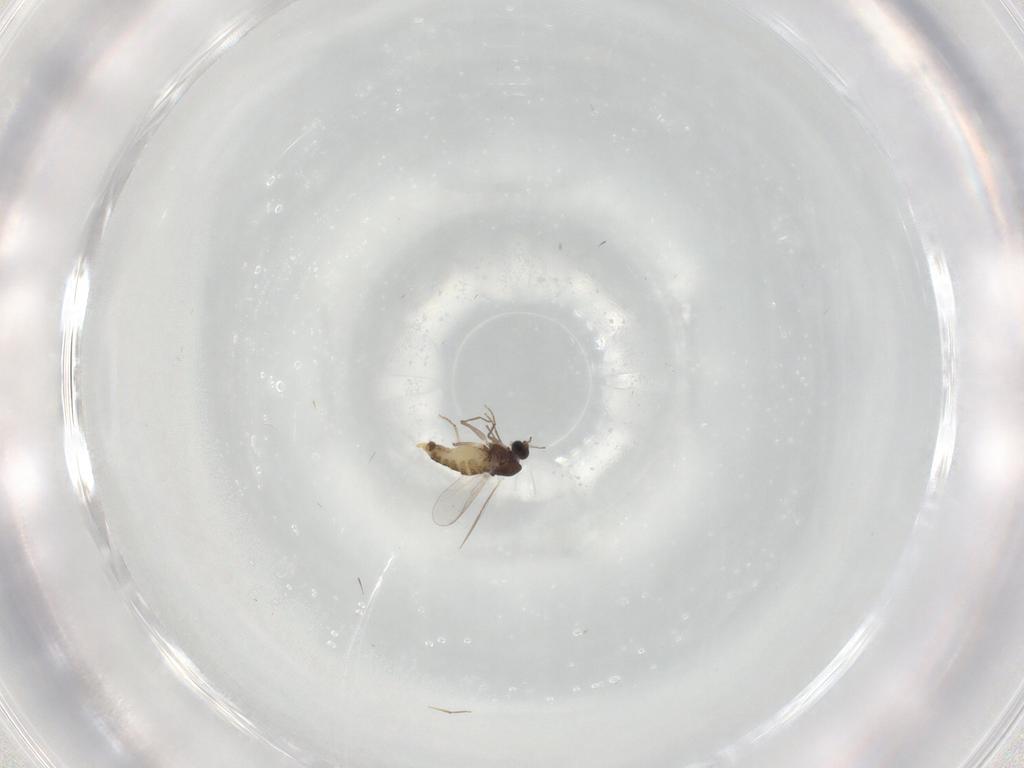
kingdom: Animalia
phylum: Arthropoda
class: Insecta
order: Diptera
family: Chironomidae
